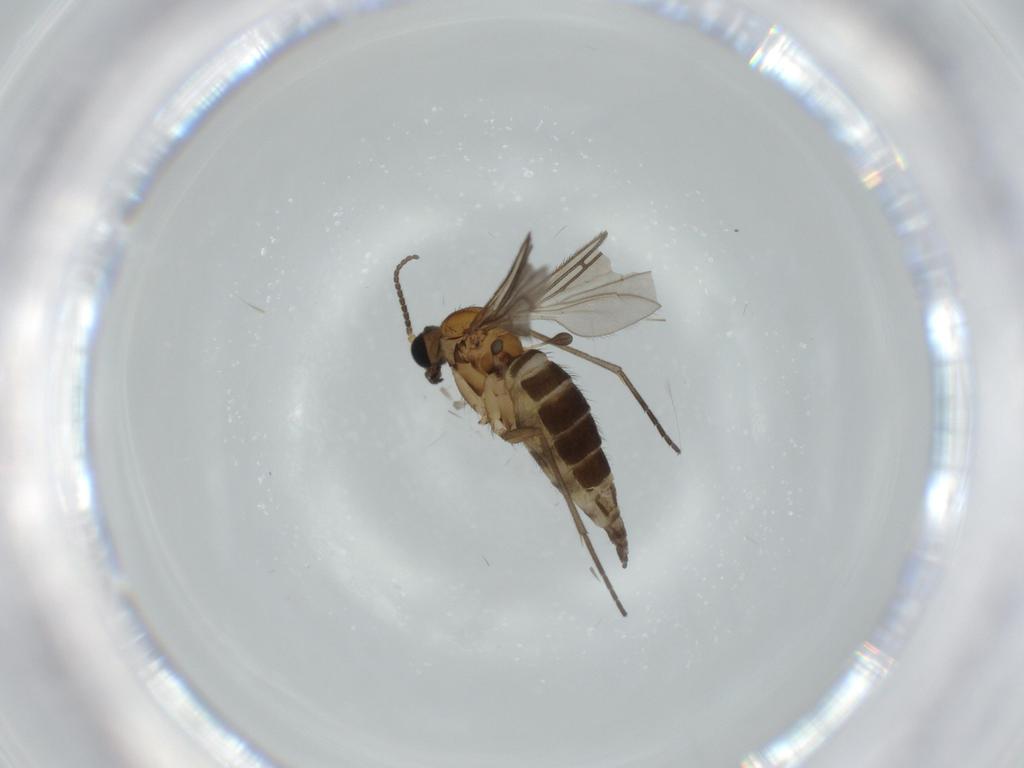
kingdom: Animalia
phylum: Arthropoda
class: Insecta
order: Diptera
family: Sciaridae
